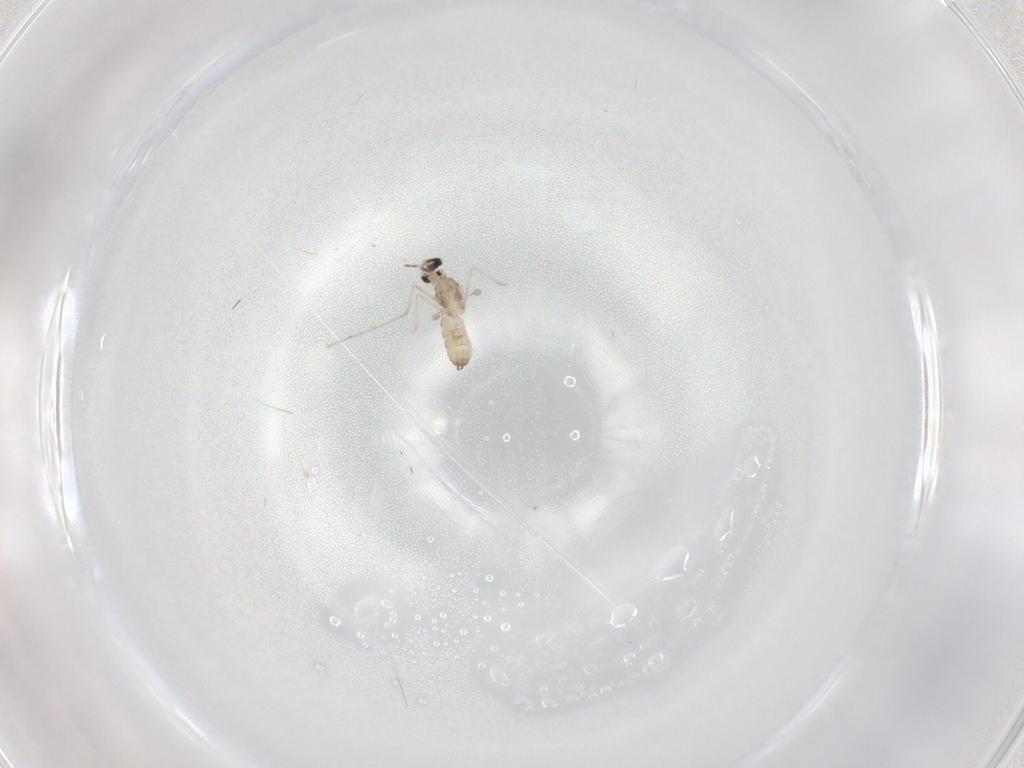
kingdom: Animalia
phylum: Arthropoda
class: Insecta
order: Diptera
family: Cecidomyiidae
